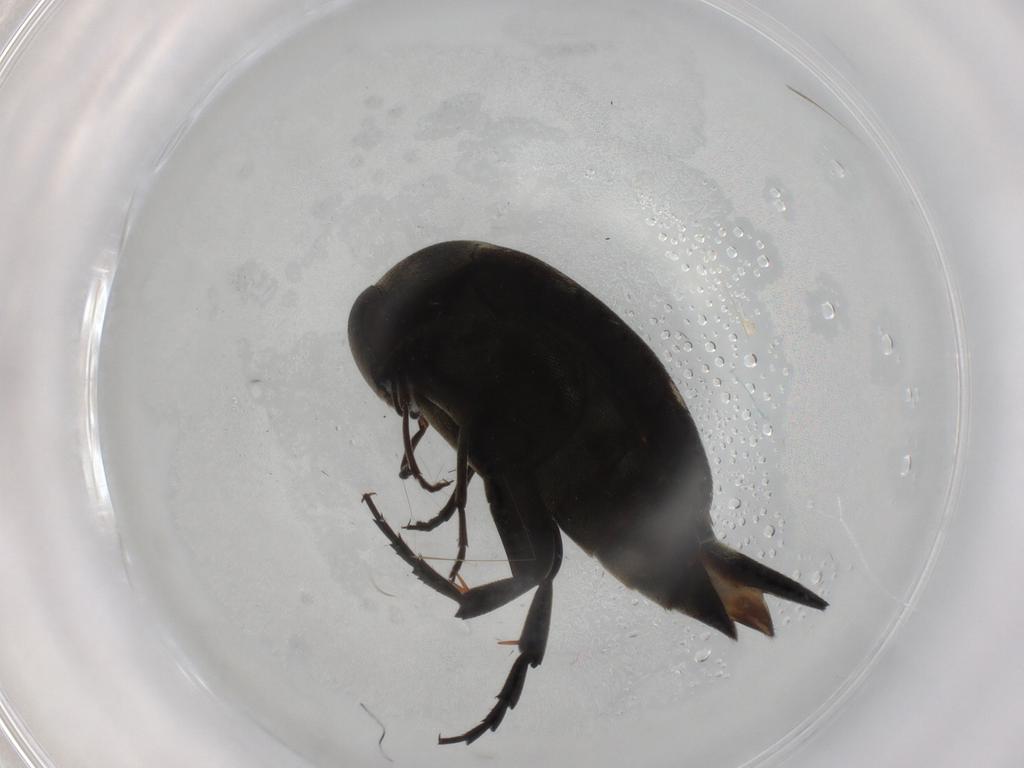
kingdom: Animalia
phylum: Arthropoda
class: Insecta
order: Coleoptera
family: Mordellidae
